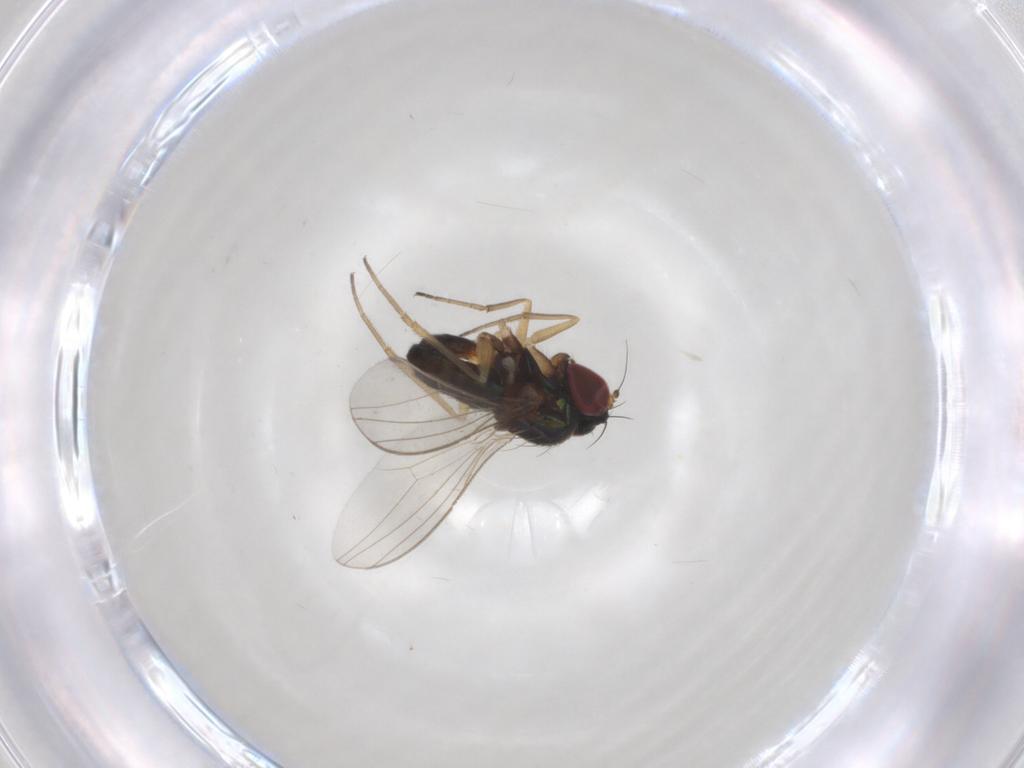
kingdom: Animalia
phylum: Arthropoda
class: Insecta
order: Diptera
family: Dolichopodidae
